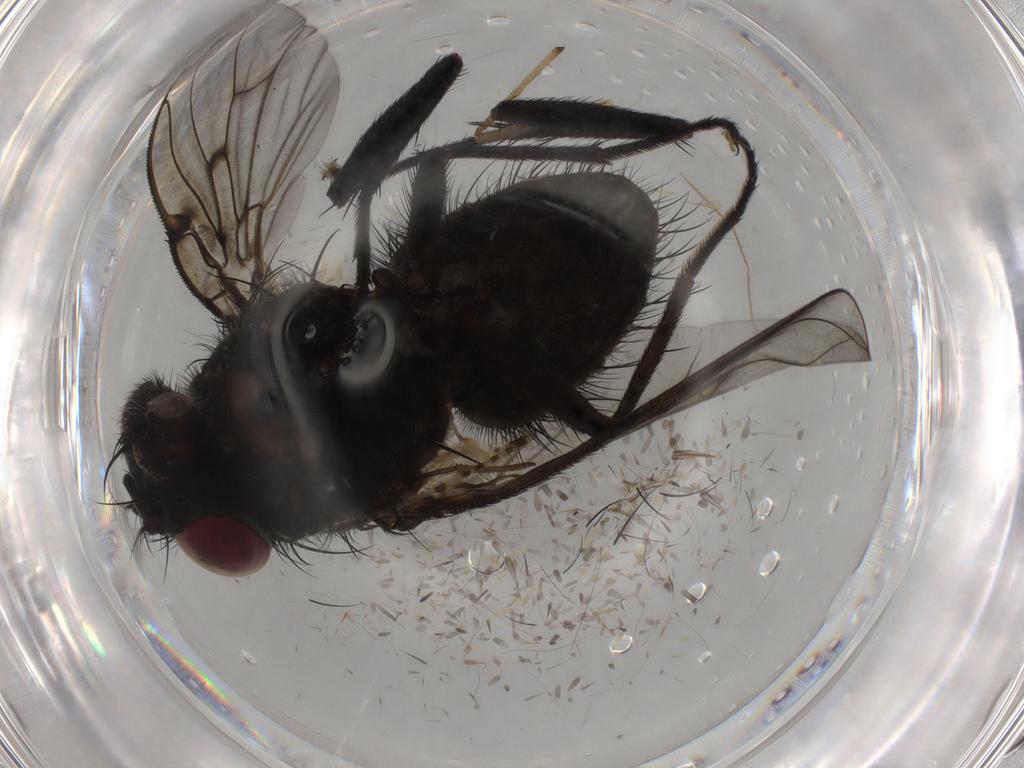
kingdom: Animalia
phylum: Arthropoda
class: Insecta
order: Diptera
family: Muscidae
